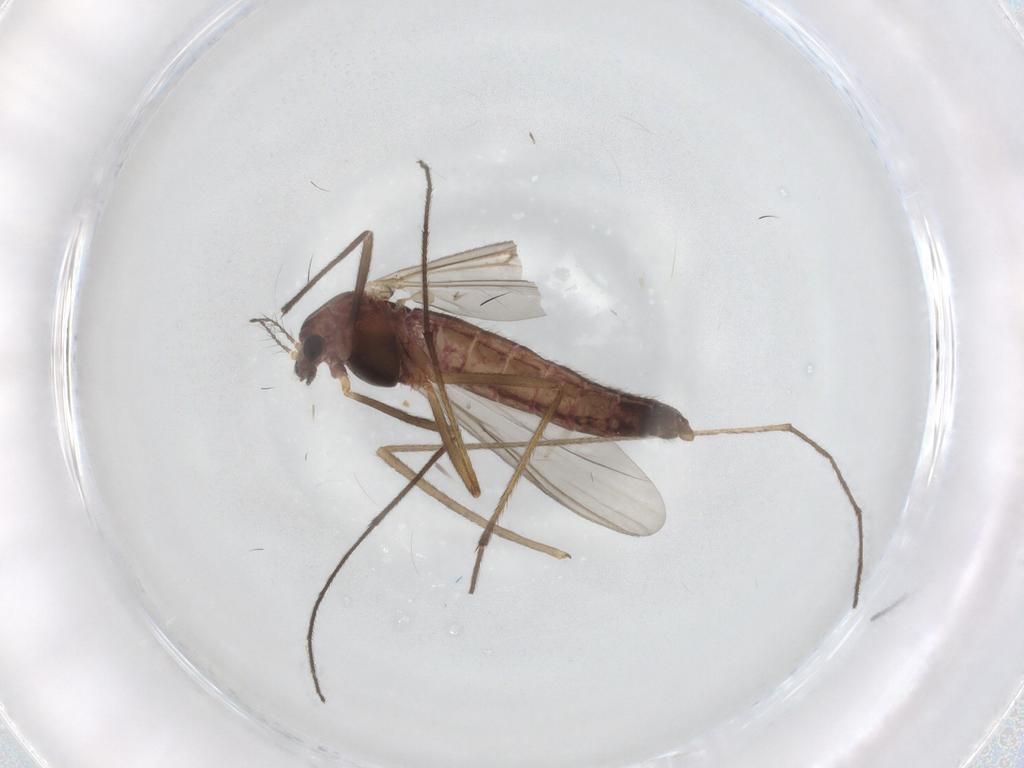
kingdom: Animalia
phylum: Arthropoda
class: Insecta
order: Diptera
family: Chironomidae
